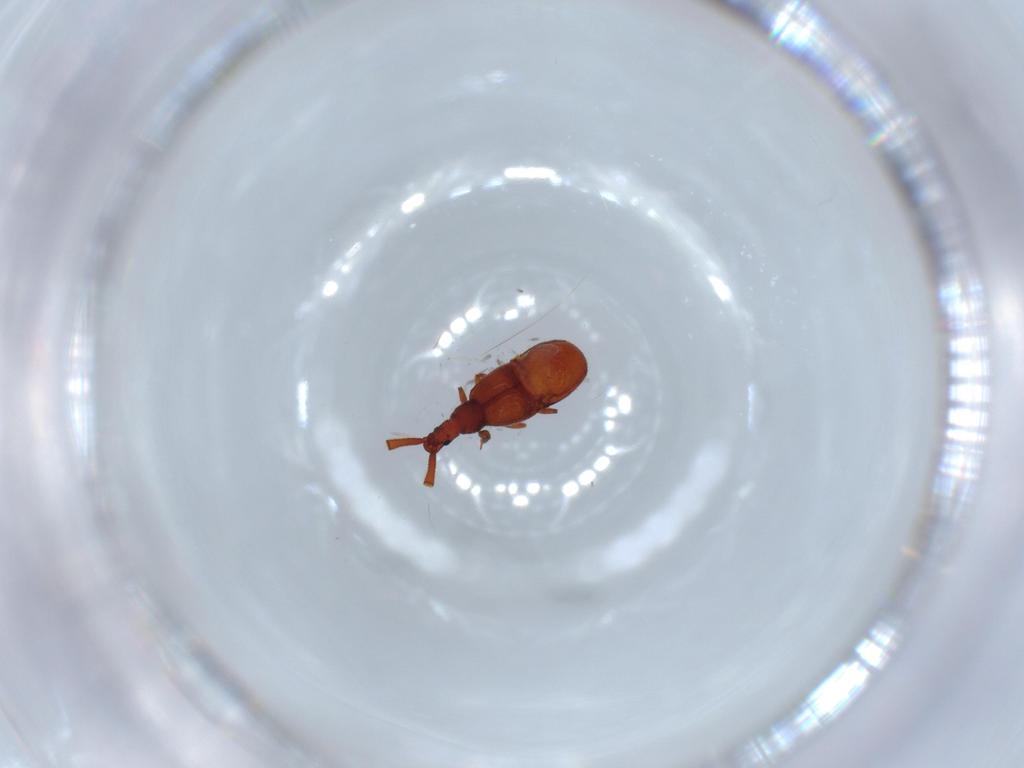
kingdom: Animalia
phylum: Arthropoda
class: Insecta
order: Coleoptera
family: Staphylinidae
